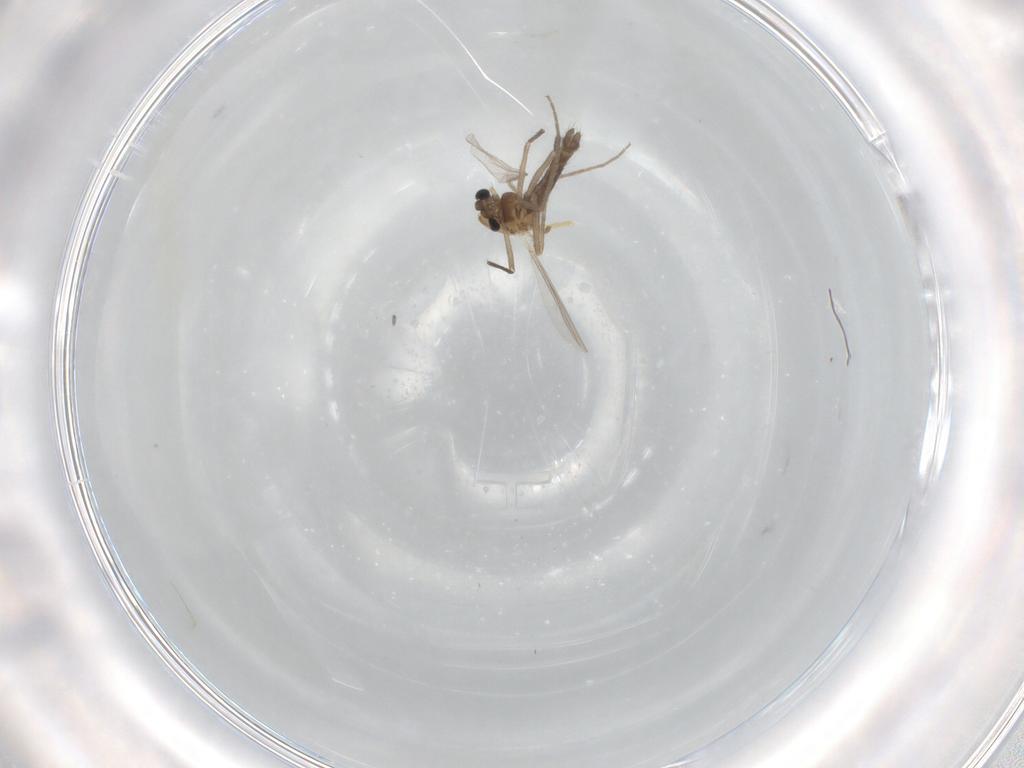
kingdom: Animalia
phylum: Arthropoda
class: Insecta
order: Diptera
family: Chironomidae
